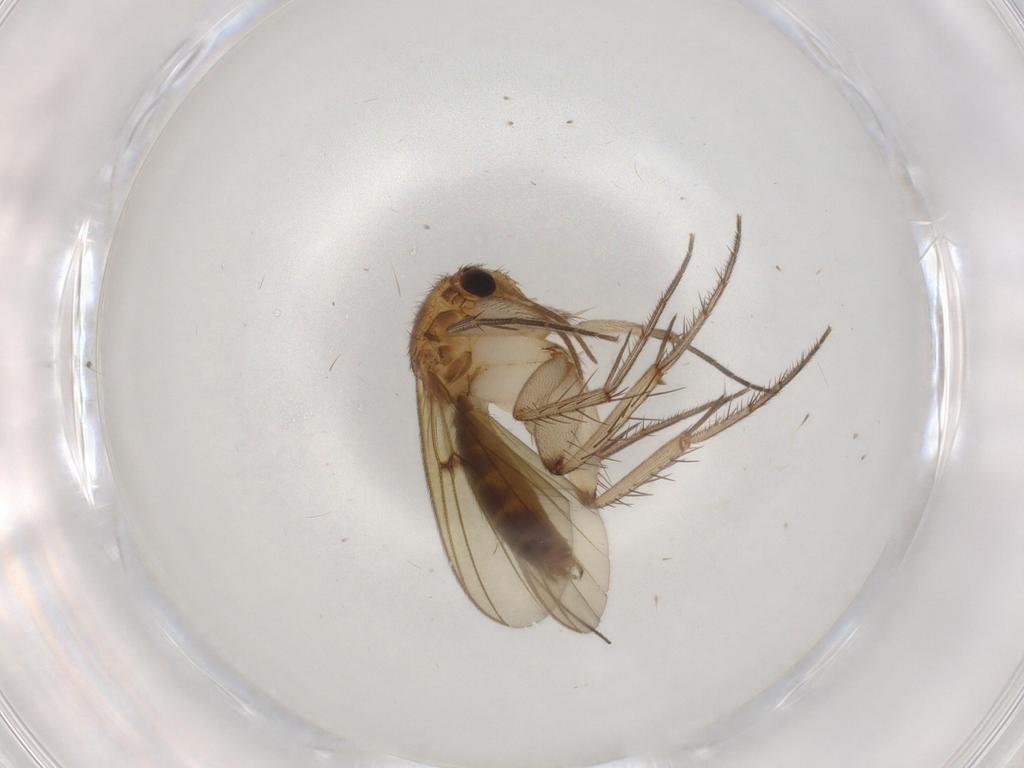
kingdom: Animalia
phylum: Arthropoda
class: Insecta
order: Diptera
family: Mycetophilidae
